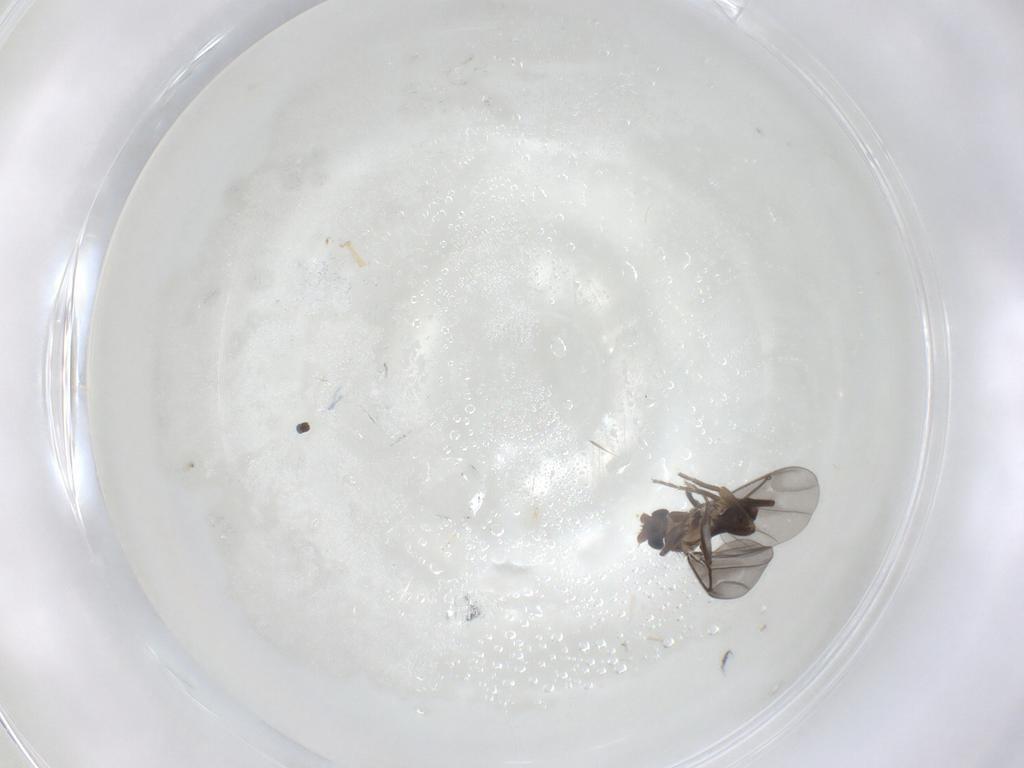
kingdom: Animalia
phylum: Arthropoda
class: Insecta
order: Diptera
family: Phoridae
